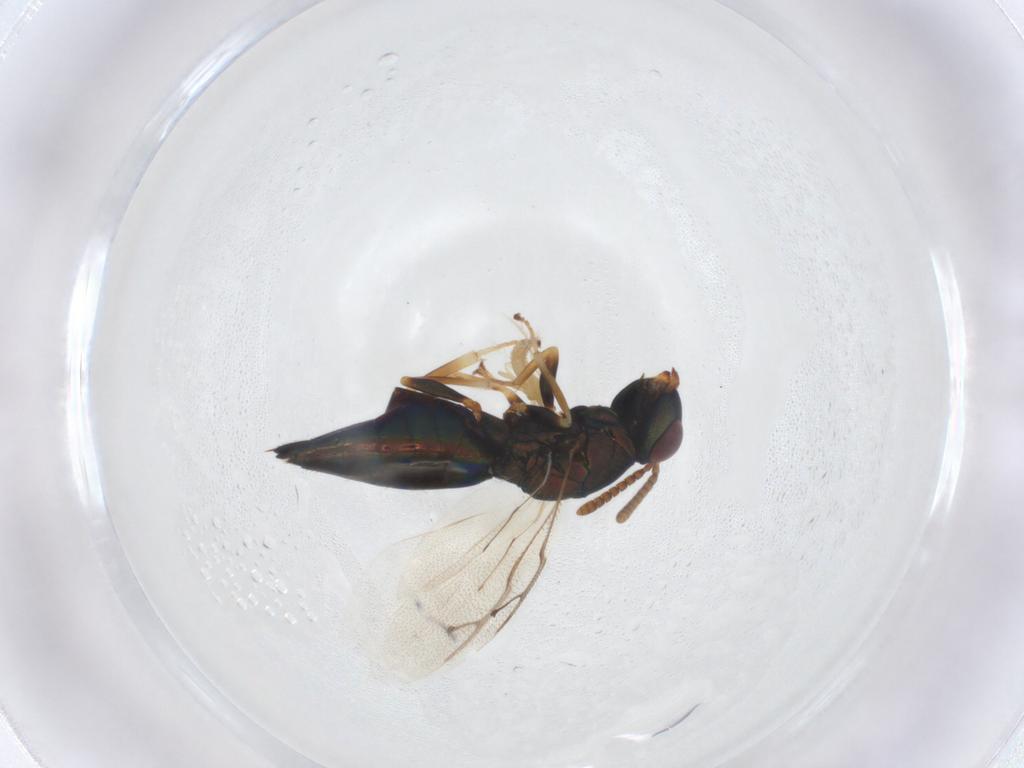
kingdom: Animalia
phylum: Arthropoda
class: Insecta
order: Hymenoptera
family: Pteromalidae
